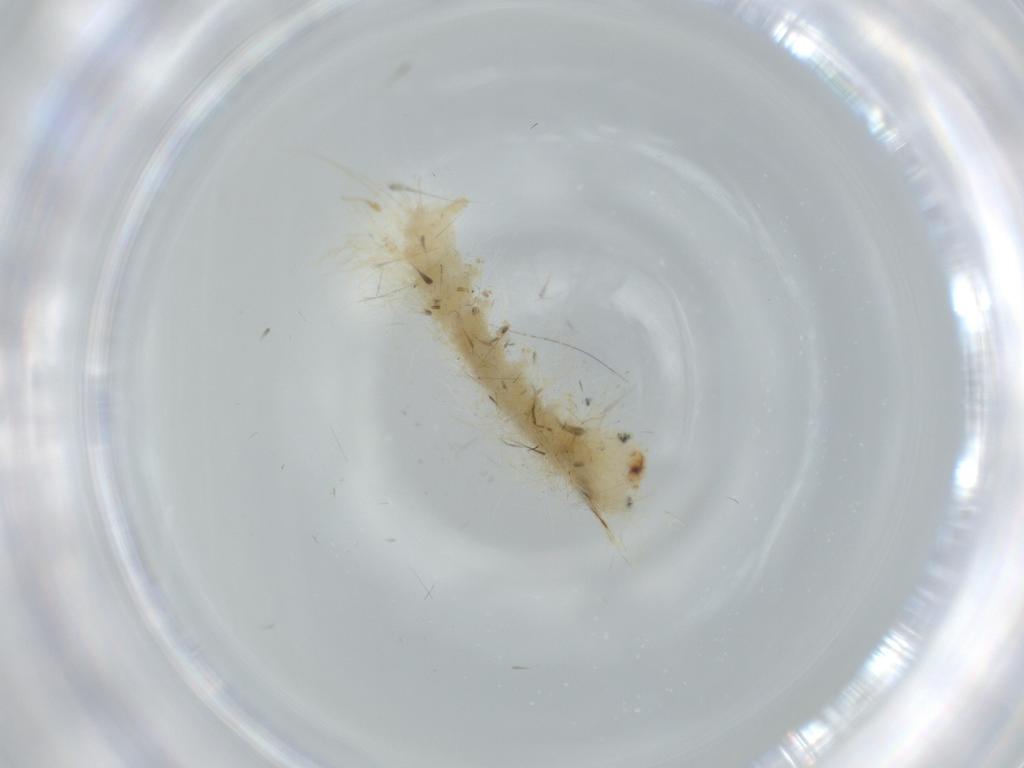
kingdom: Animalia
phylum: Arthropoda
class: Insecta
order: Lepidoptera
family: Apatelodidae
